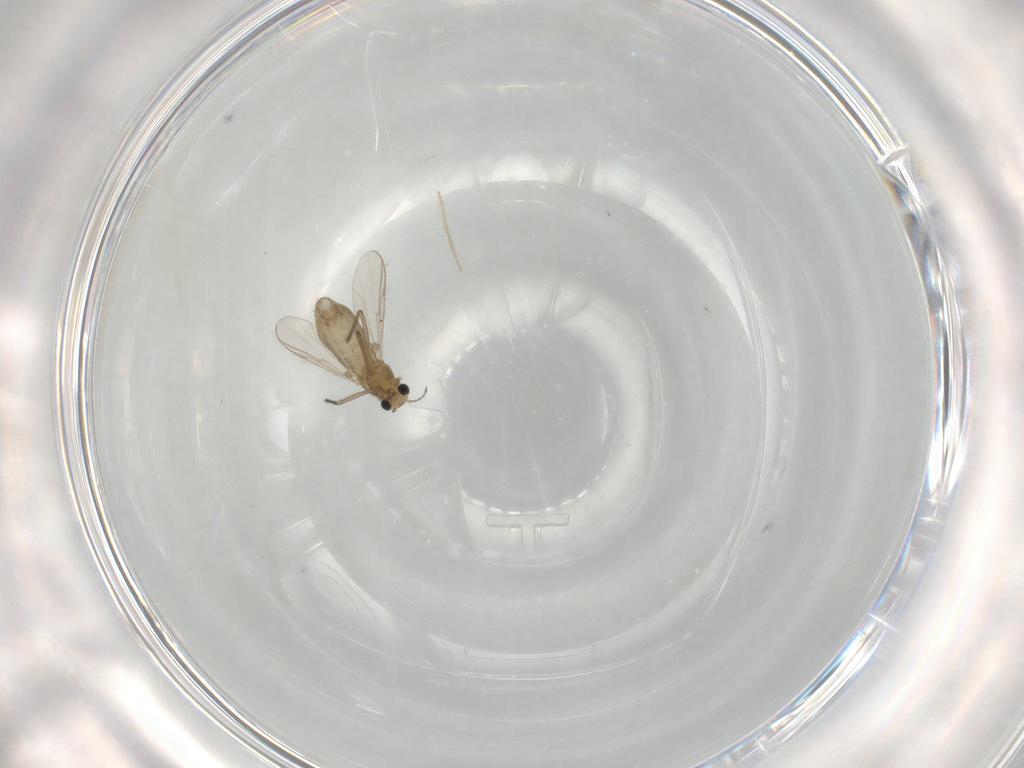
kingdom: Animalia
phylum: Arthropoda
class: Insecta
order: Diptera
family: Chironomidae
